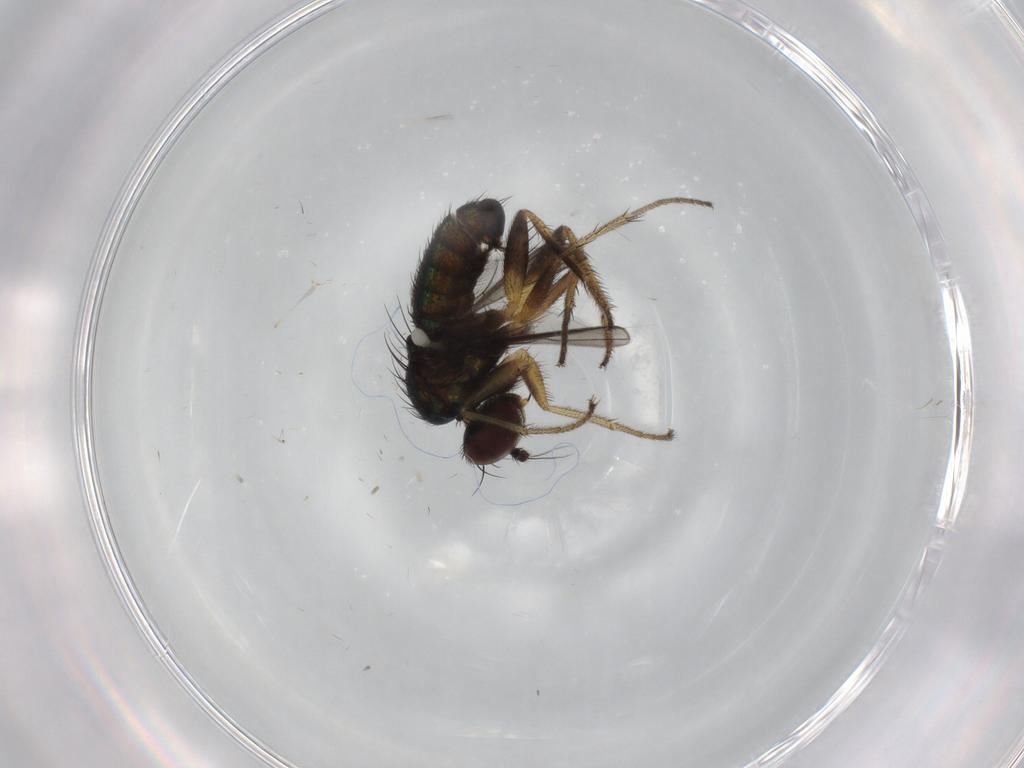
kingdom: Animalia
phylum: Arthropoda
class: Insecta
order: Diptera
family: Dolichopodidae
